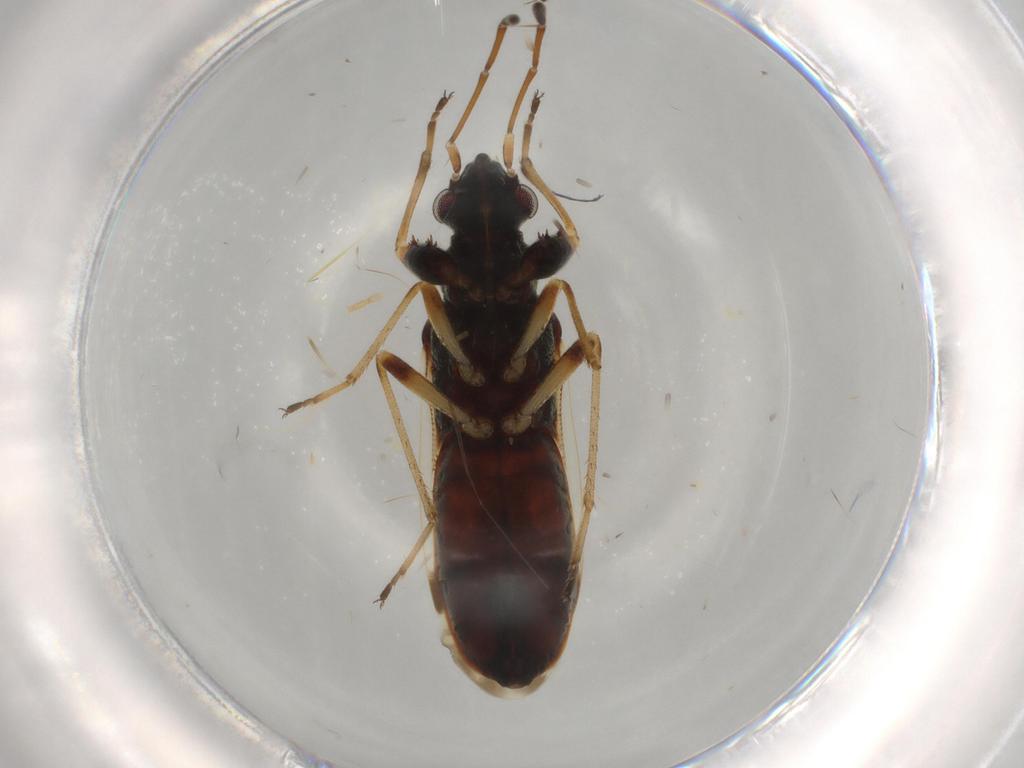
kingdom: Animalia
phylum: Arthropoda
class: Insecta
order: Hemiptera
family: Rhyparochromidae
